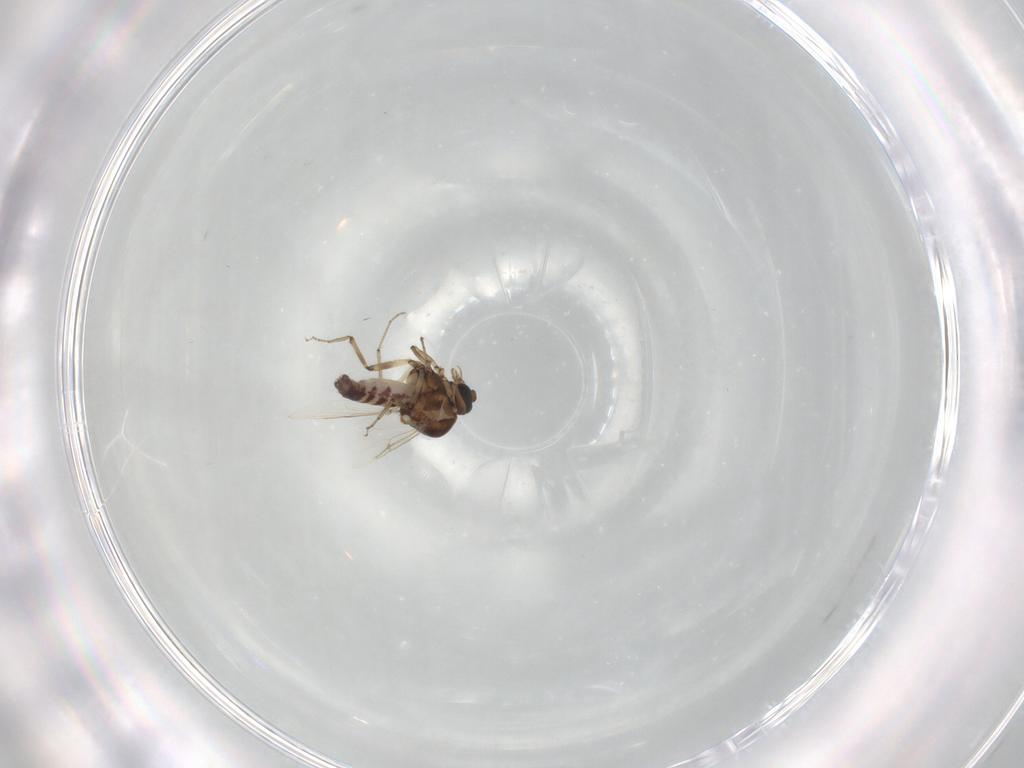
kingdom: Animalia
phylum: Arthropoda
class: Insecta
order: Diptera
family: Ceratopogonidae
